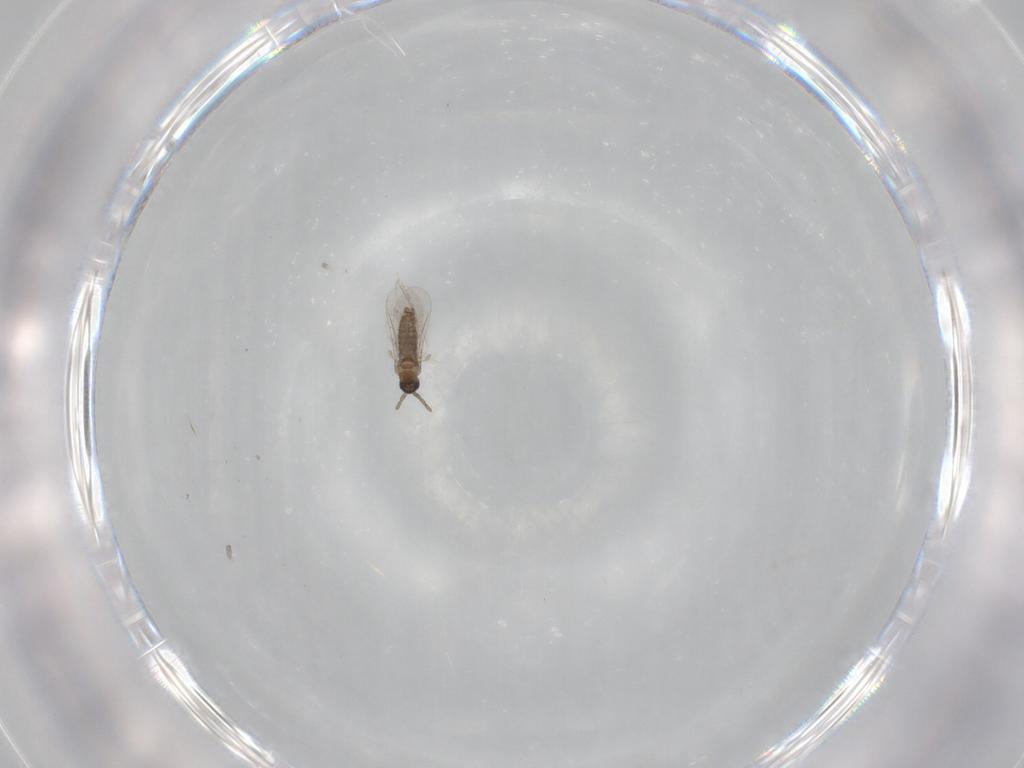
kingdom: Animalia
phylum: Arthropoda
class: Insecta
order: Diptera
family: Cecidomyiidae
